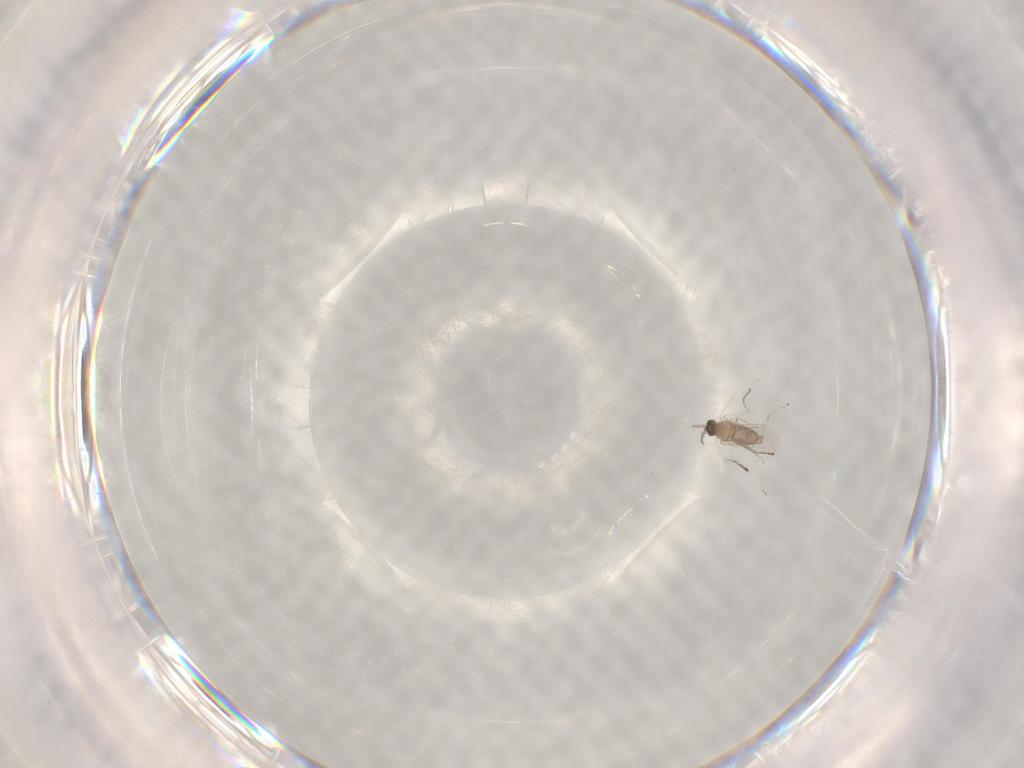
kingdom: Animalia
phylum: Arthropoda
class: Insecta
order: Diptera
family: Cecidomyiidae
